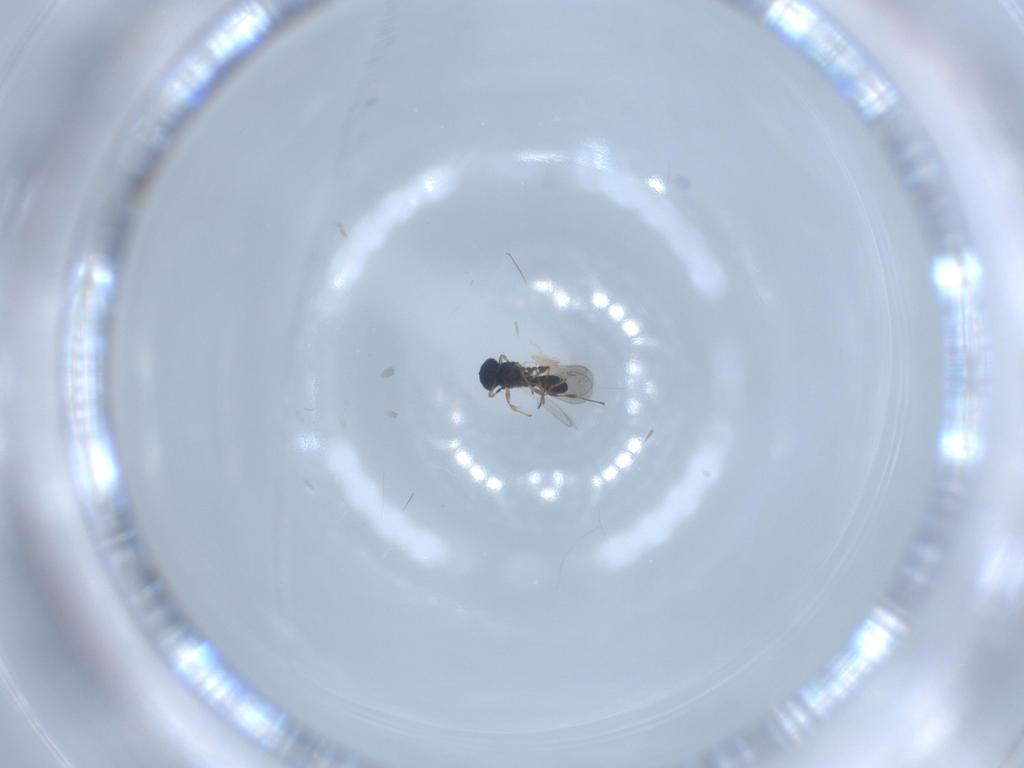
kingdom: Animalia
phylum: Arthropoda
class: Insecta
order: Hymenoptera
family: Platygastridae
